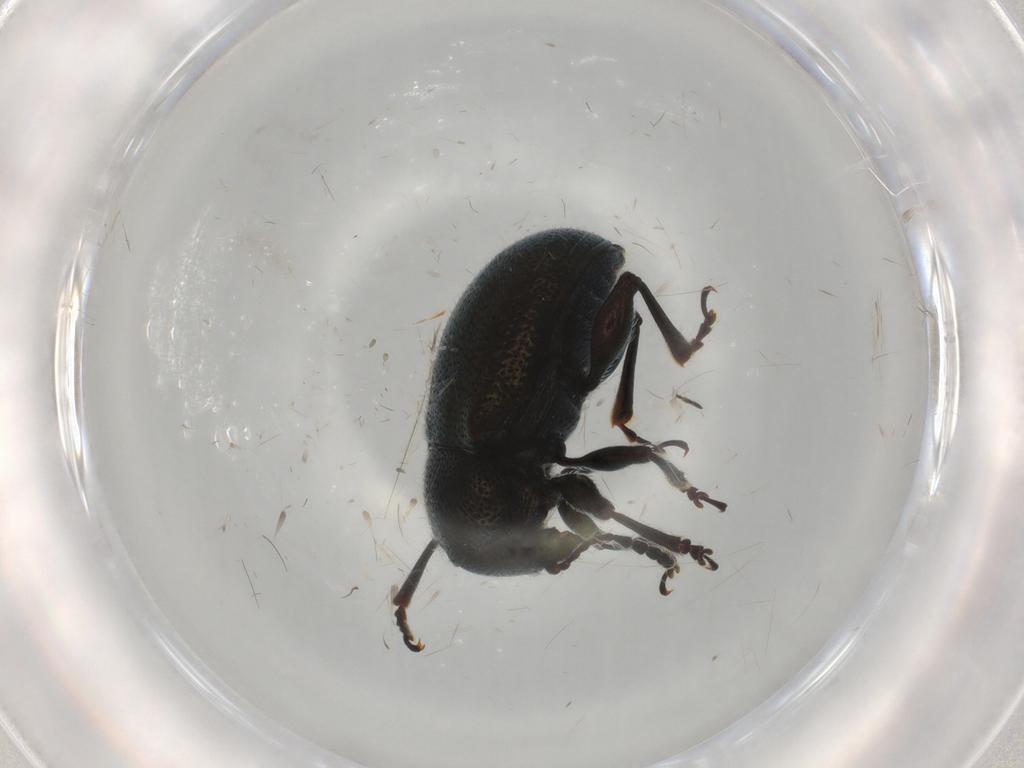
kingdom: Animalia
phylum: Arthropoda
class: Insecta
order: Coleoptera
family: Chrysomelidae
